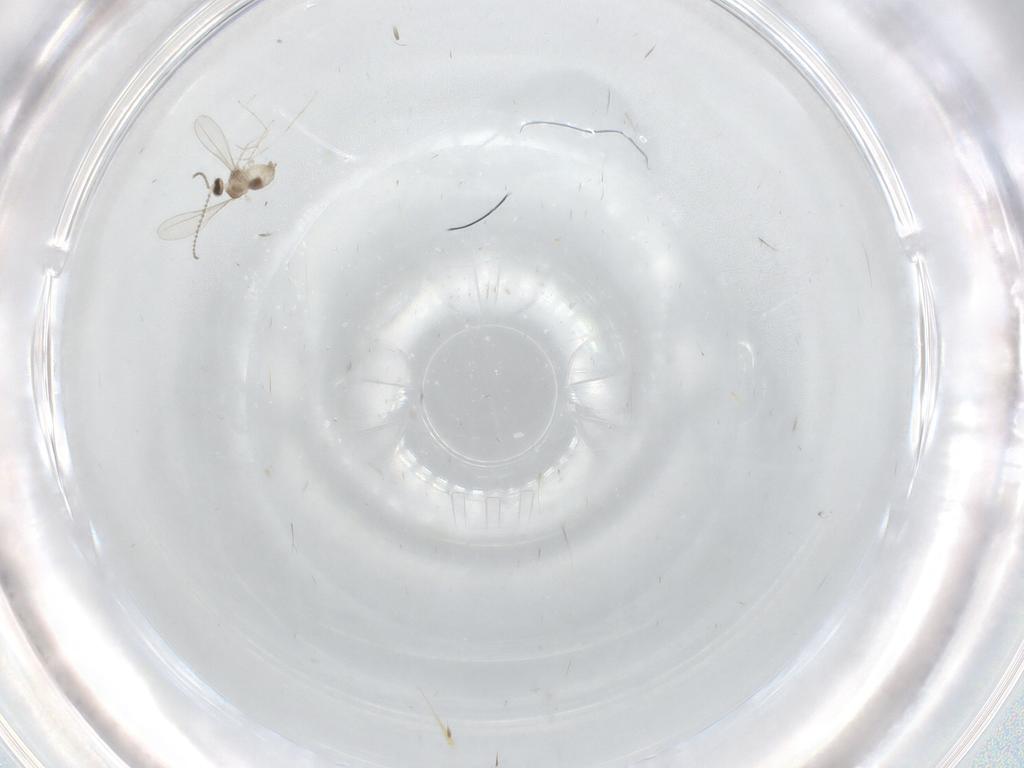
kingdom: Animalia
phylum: Arthropoda
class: Insecta
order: Diptera
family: Cecidomyiidae
